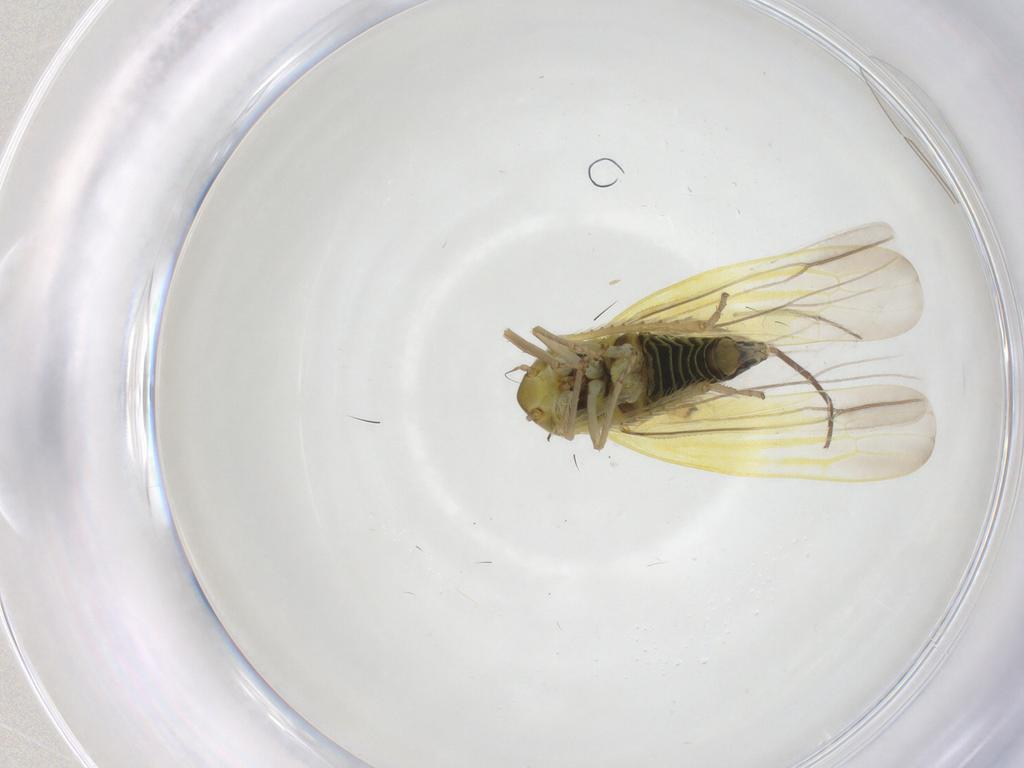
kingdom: Animalia
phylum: Arthropoda
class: Insecta
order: Hemiptera
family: Cicadellidae
